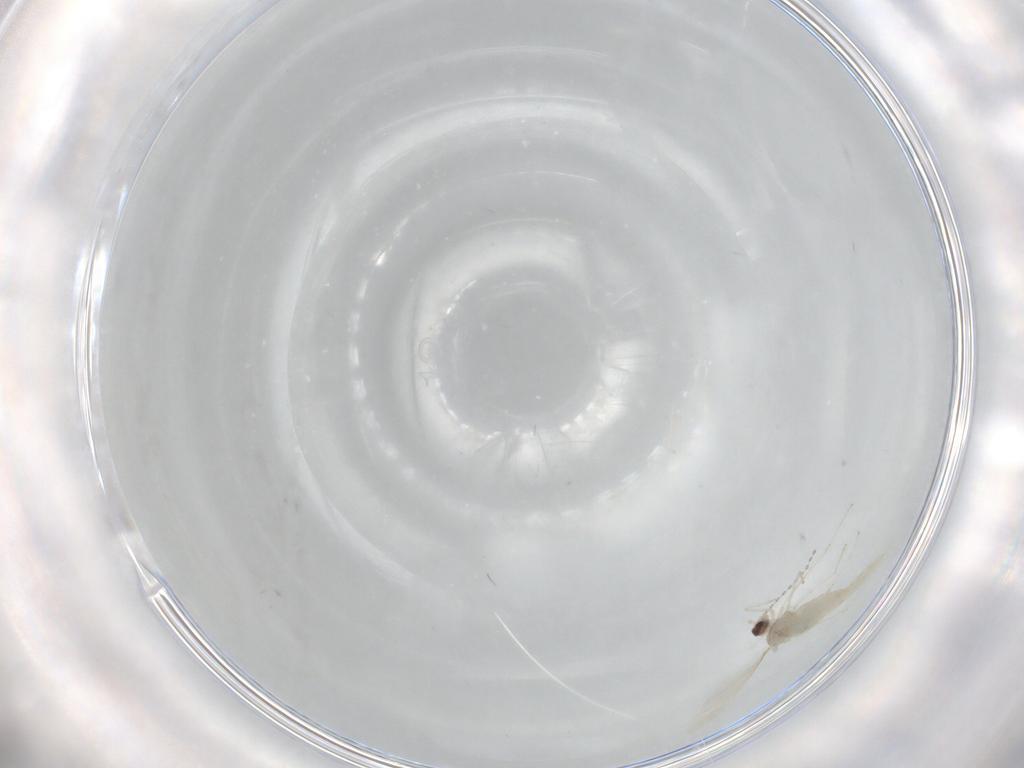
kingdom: Animalia
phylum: Arthropoda
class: Insecta
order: Diptera
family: Cecidomyiidae
